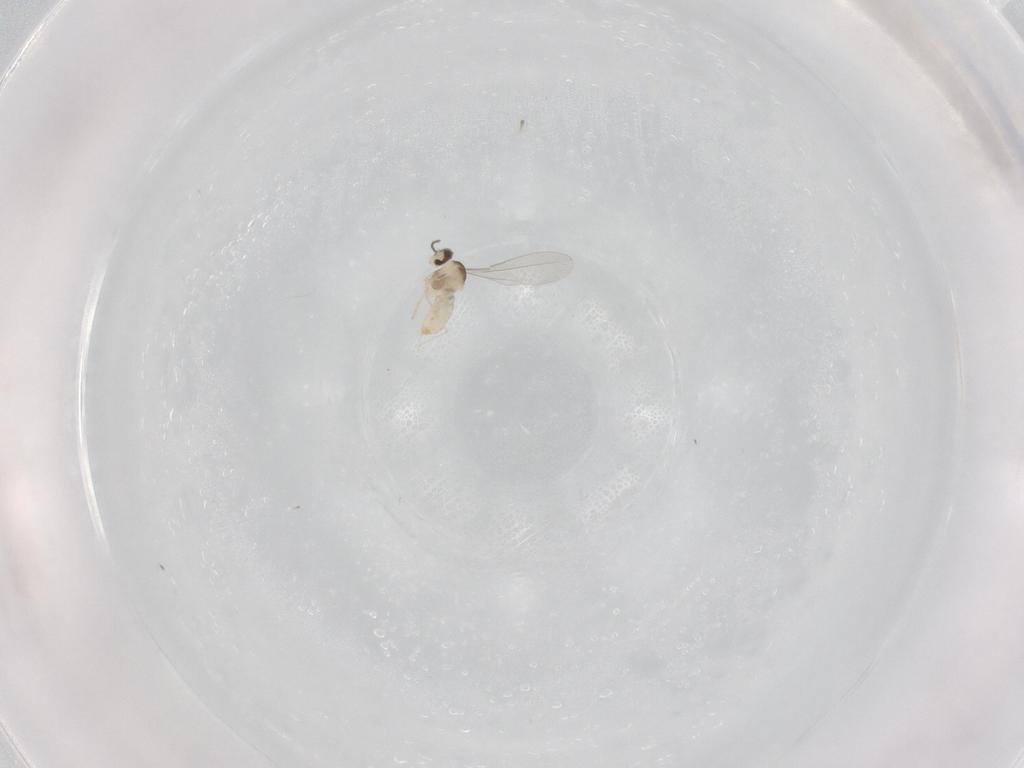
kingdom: Animalia
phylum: Arthropoda
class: Insecta
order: Diptera
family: Cecidomyiidae
